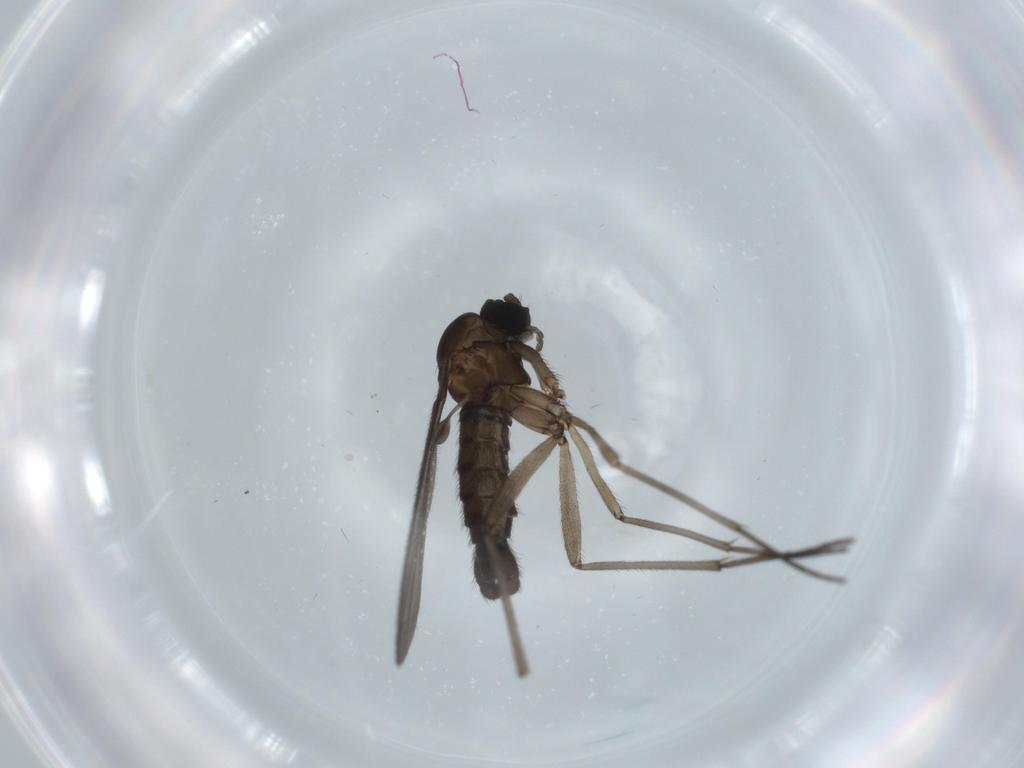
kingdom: Animalia
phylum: Arthropoda
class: Insecta
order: Diptera
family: Sciaridae
